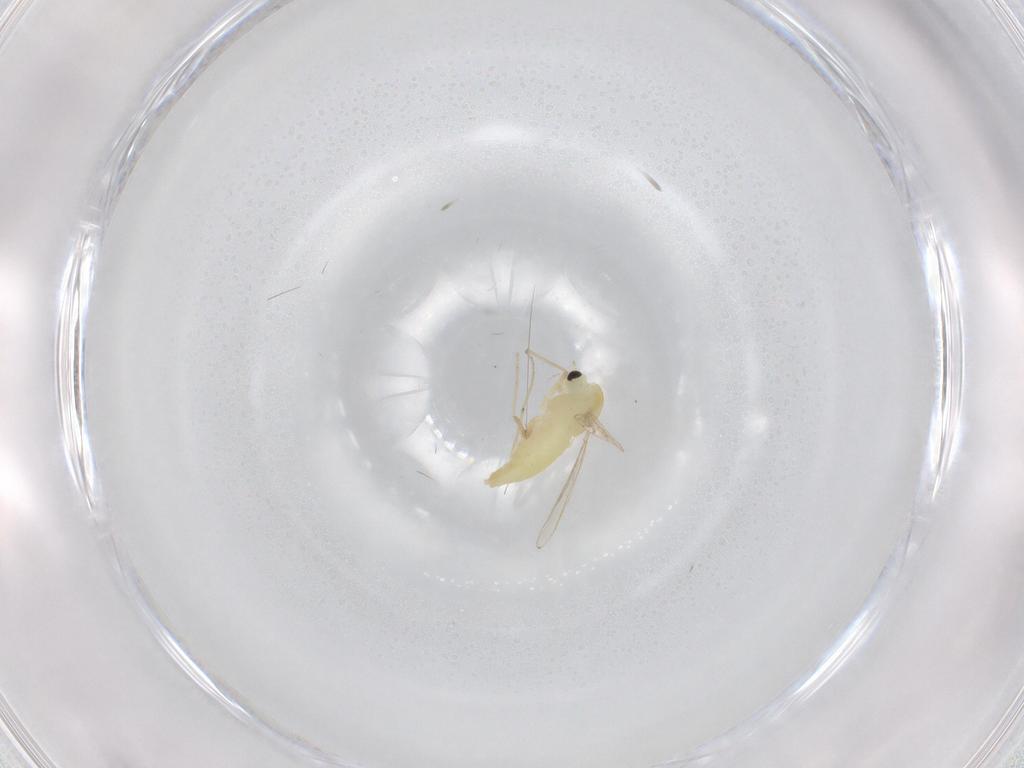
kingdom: Animalia
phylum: Arthropoda
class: Insecta
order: Diptera
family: Chironomidae
